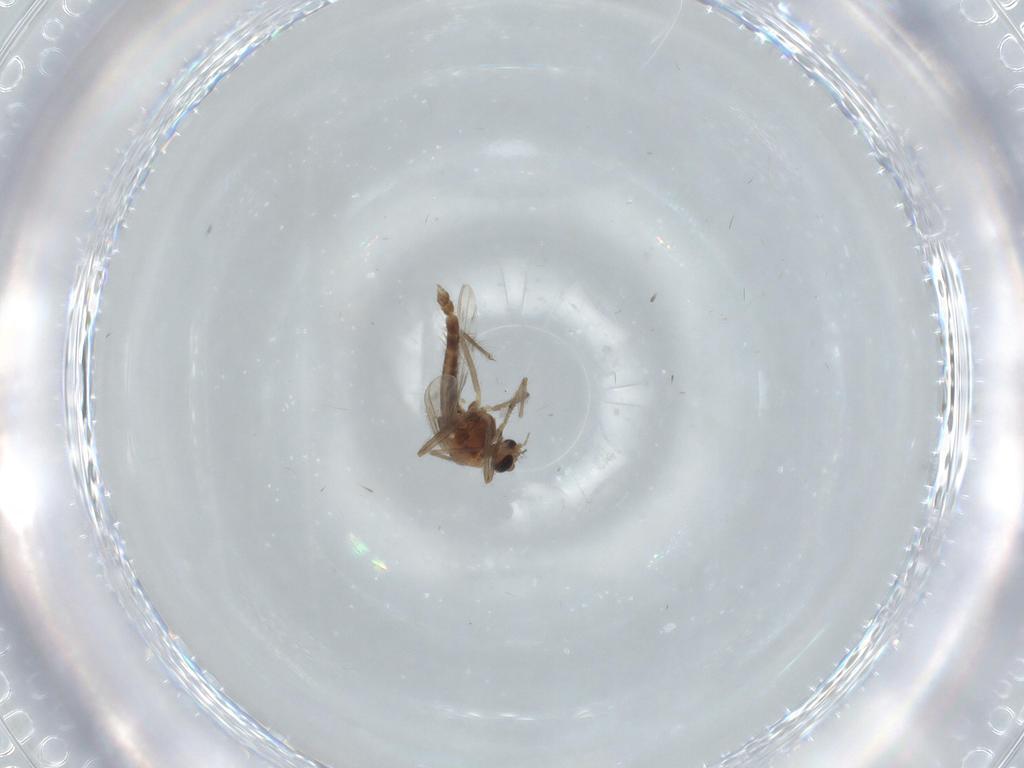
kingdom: Animalia
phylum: Arthropoda
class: Insecta
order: Diptera
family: Chironomidae
